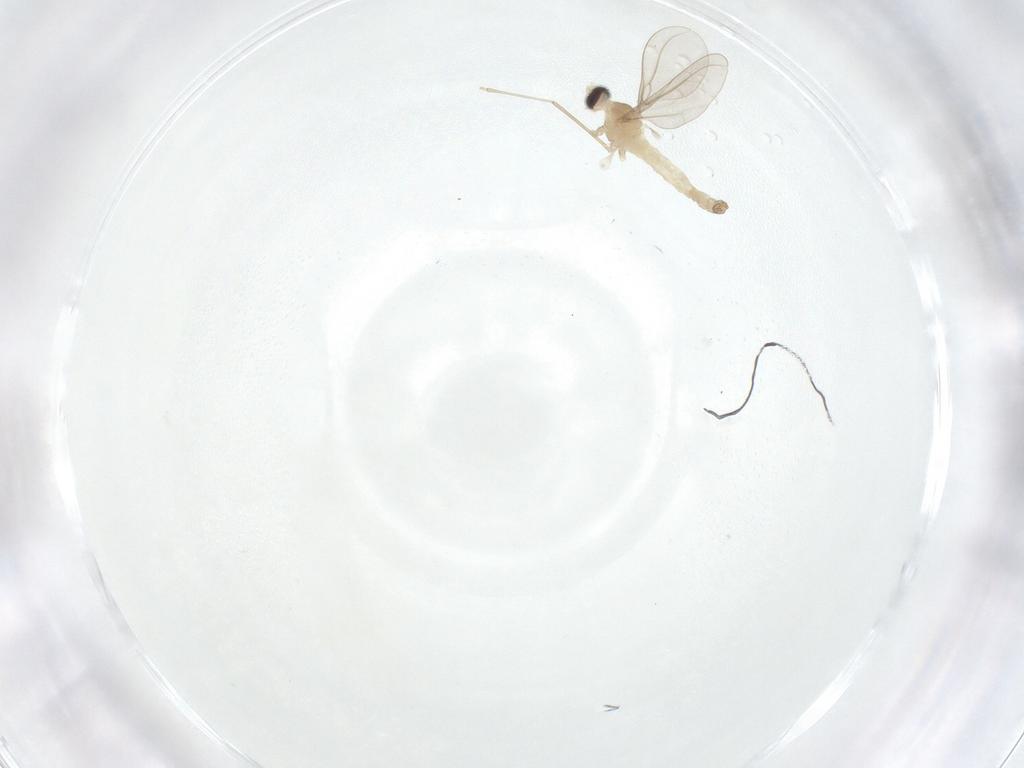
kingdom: Animalia
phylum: Arthropoda
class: Insecta
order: Diptera
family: Cecidomyiidae
